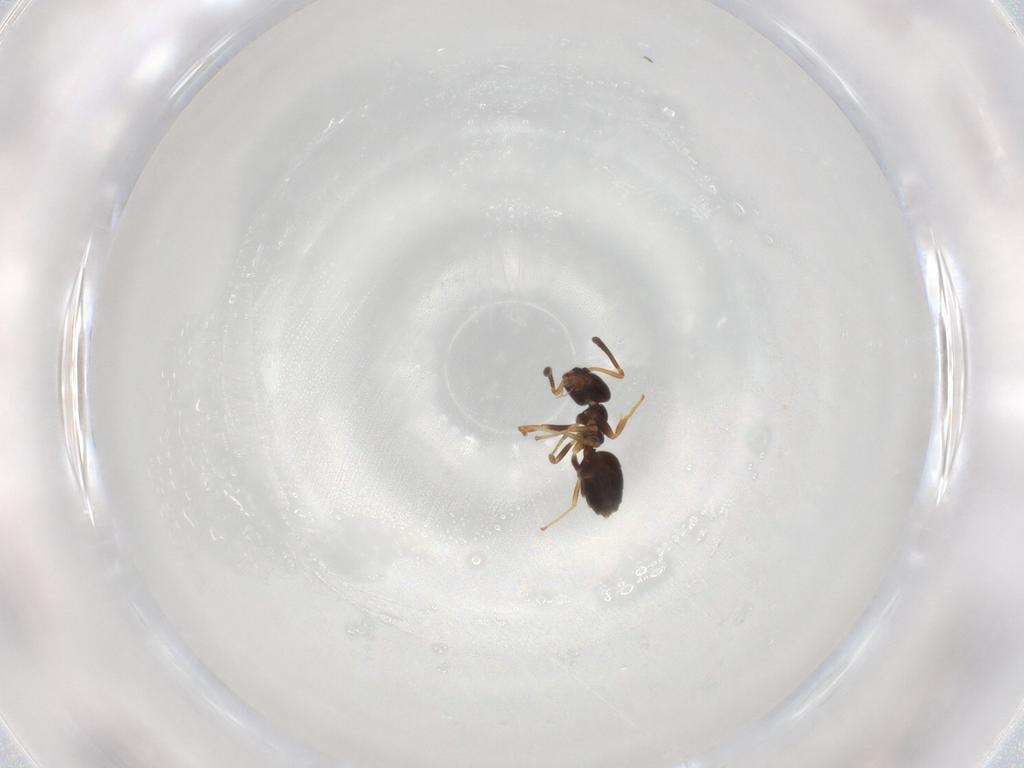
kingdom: Animalia
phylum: Arthropoda
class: Insecta
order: Hymenoptera
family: Formicidae
